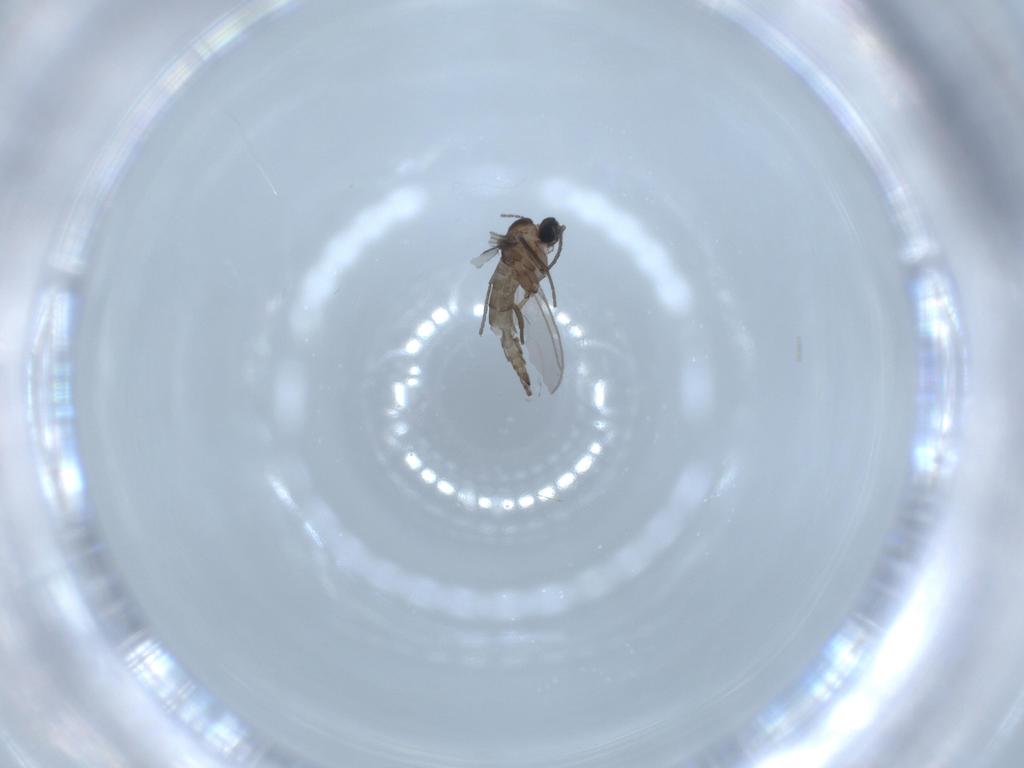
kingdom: Animalia
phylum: Arthropoda
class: Insecta
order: Diptera
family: Cecidomyiidae
